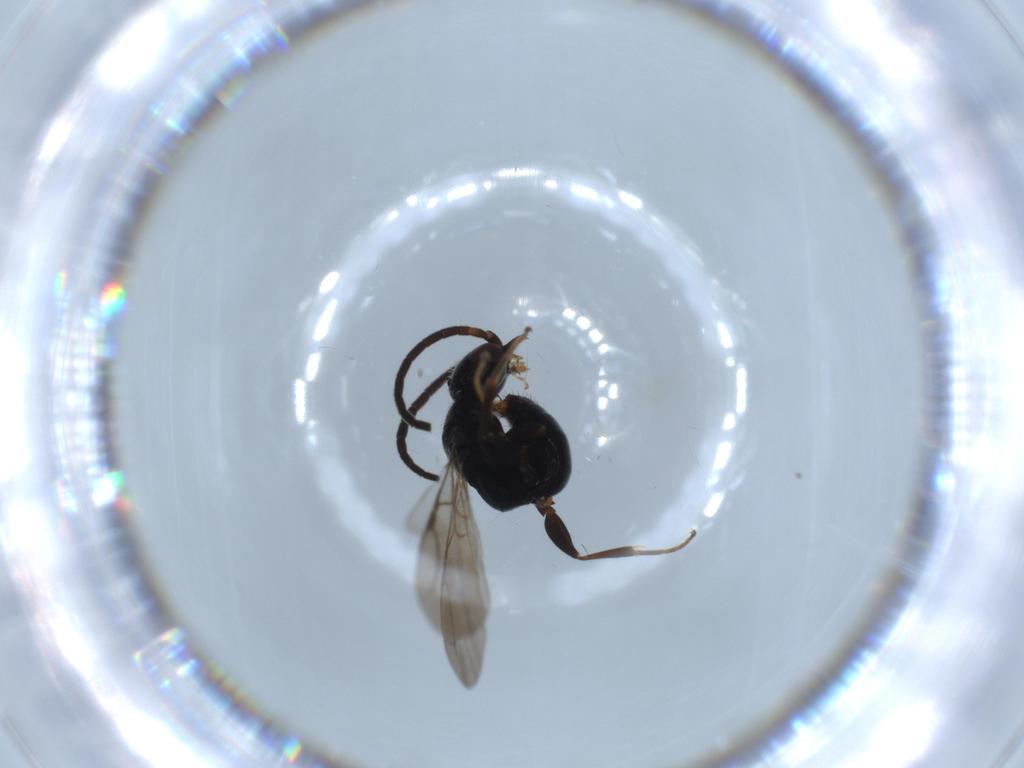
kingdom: Animalia
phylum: Arthropoda
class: Insecta
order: Hymenoptera
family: Bethylidae
